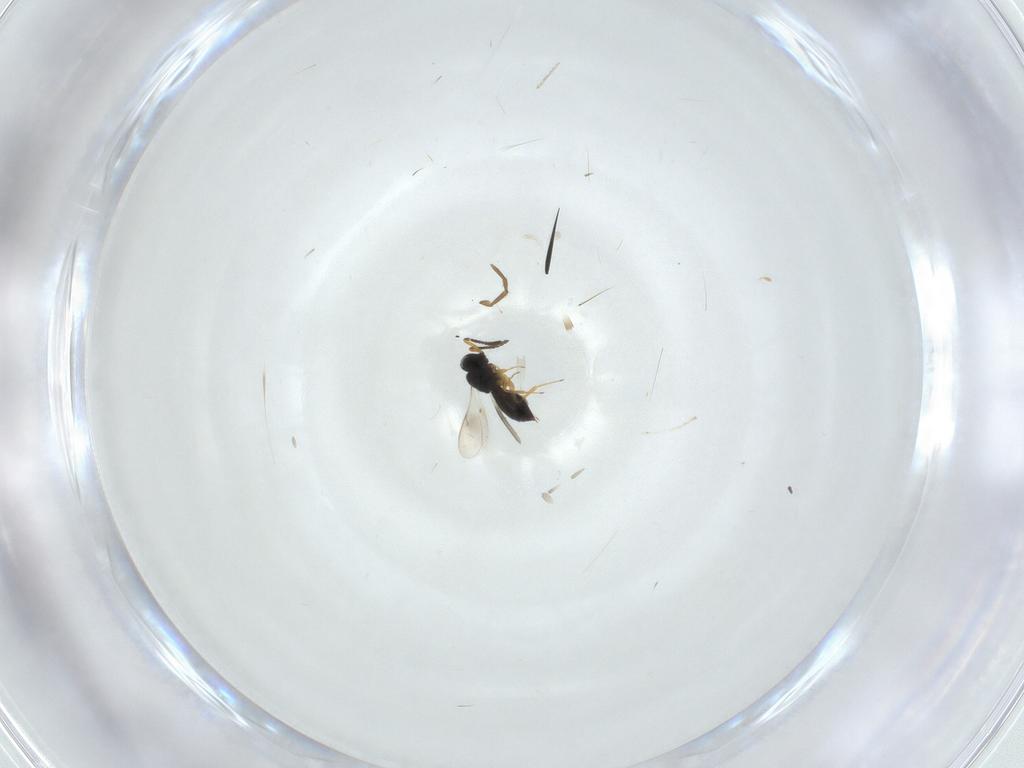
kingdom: Animalia
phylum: Arthropoda
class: Insecta
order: Hymenoptera
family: Scelionidae
